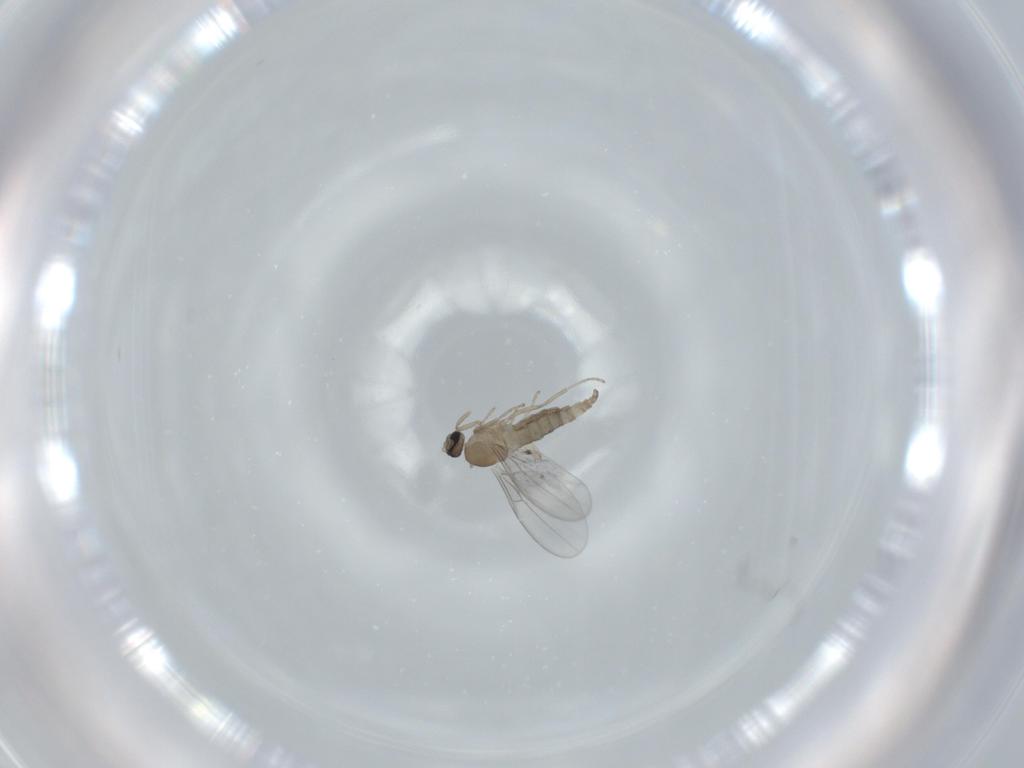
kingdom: Animalia
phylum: Arthropoda
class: Insecta
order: Diptera
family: Cecidomyiidae
